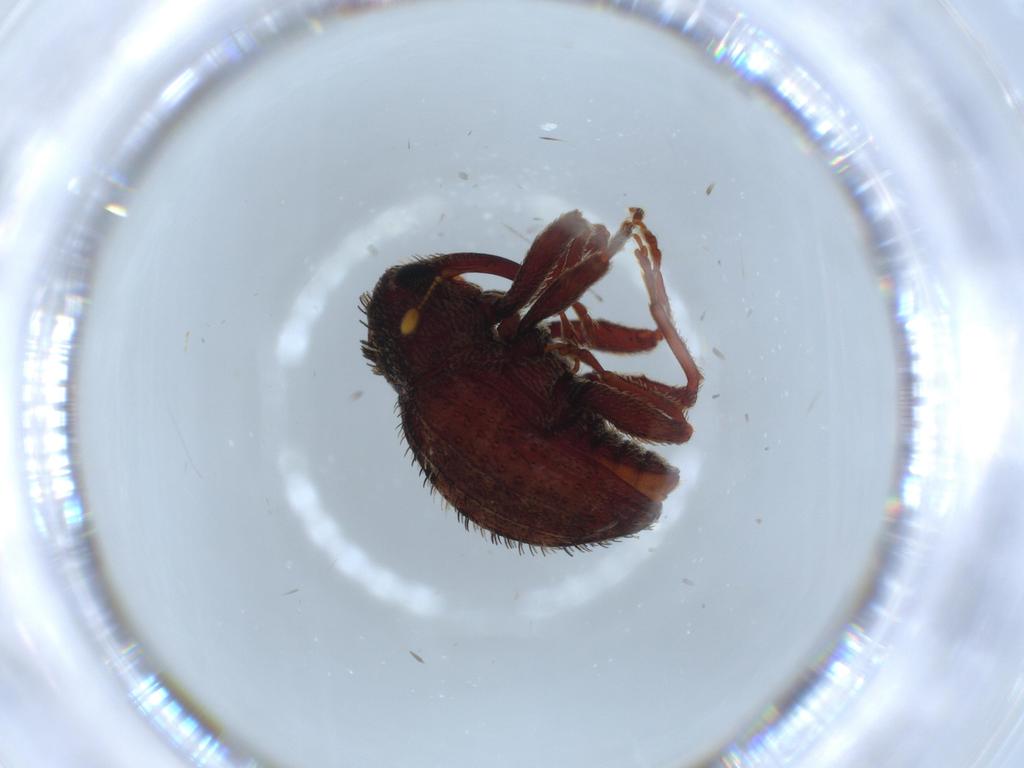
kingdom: Animalia
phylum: Arthropoda
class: Insecta
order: Coleoptera
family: Curculionidae
